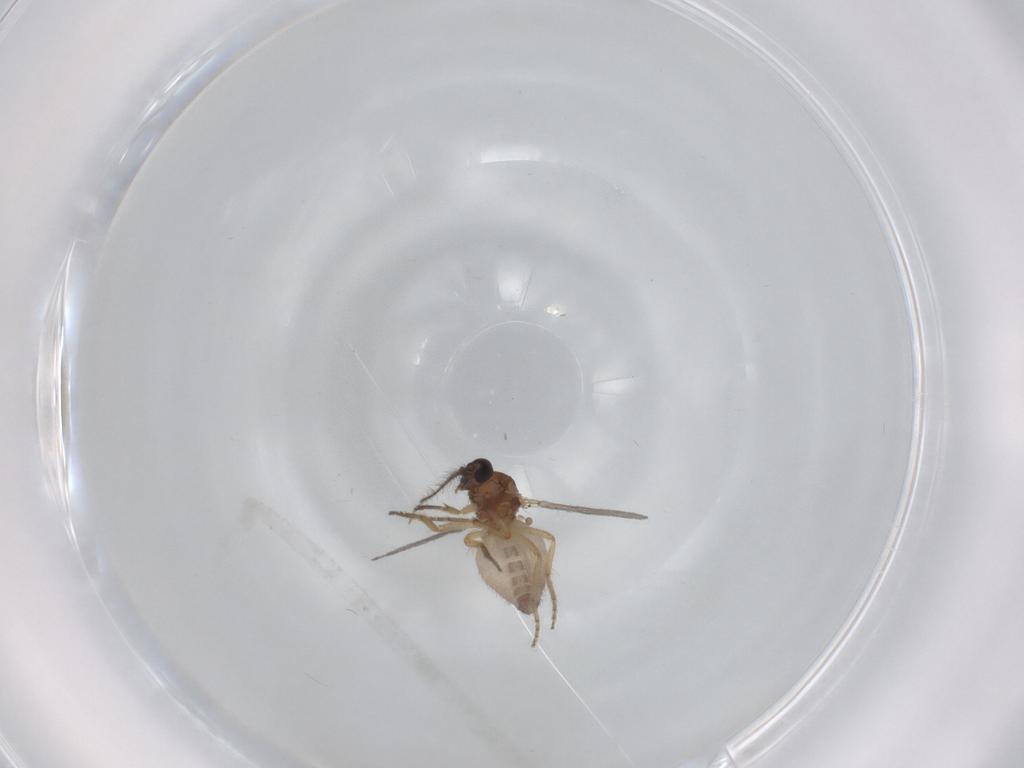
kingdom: Animalia
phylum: Arthropoda
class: Insecta
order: Diptera
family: Ceratopogonidae
